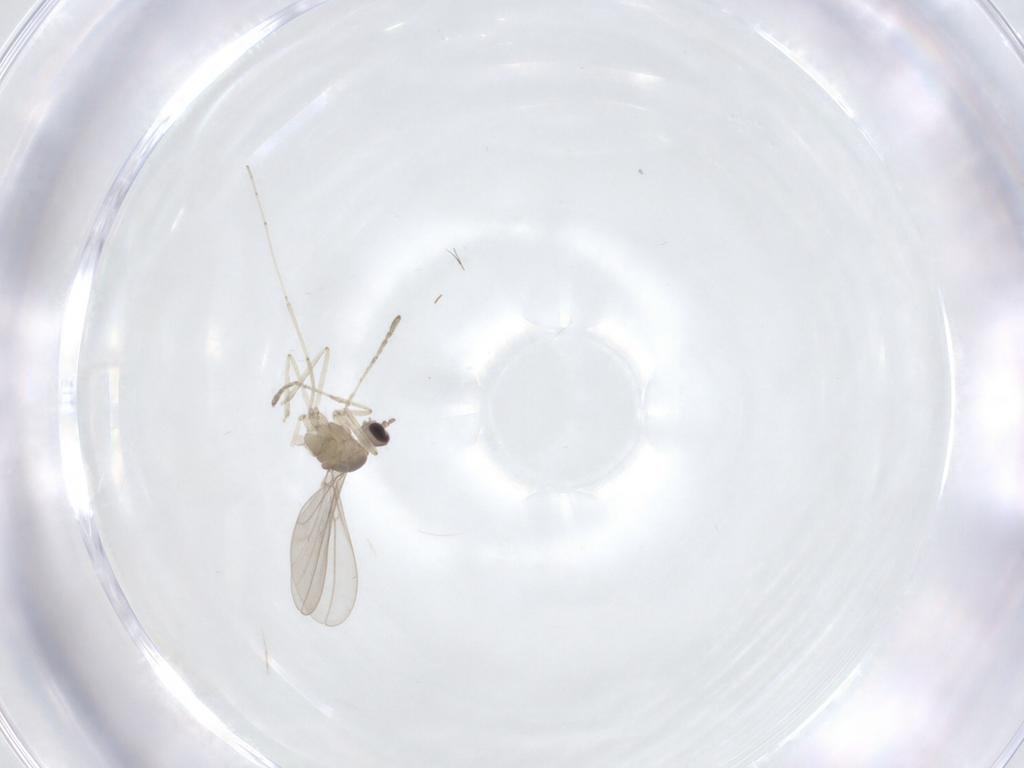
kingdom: Animalia
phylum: Arthropoda
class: Insecta
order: Diptera
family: Cecidomyiidae
